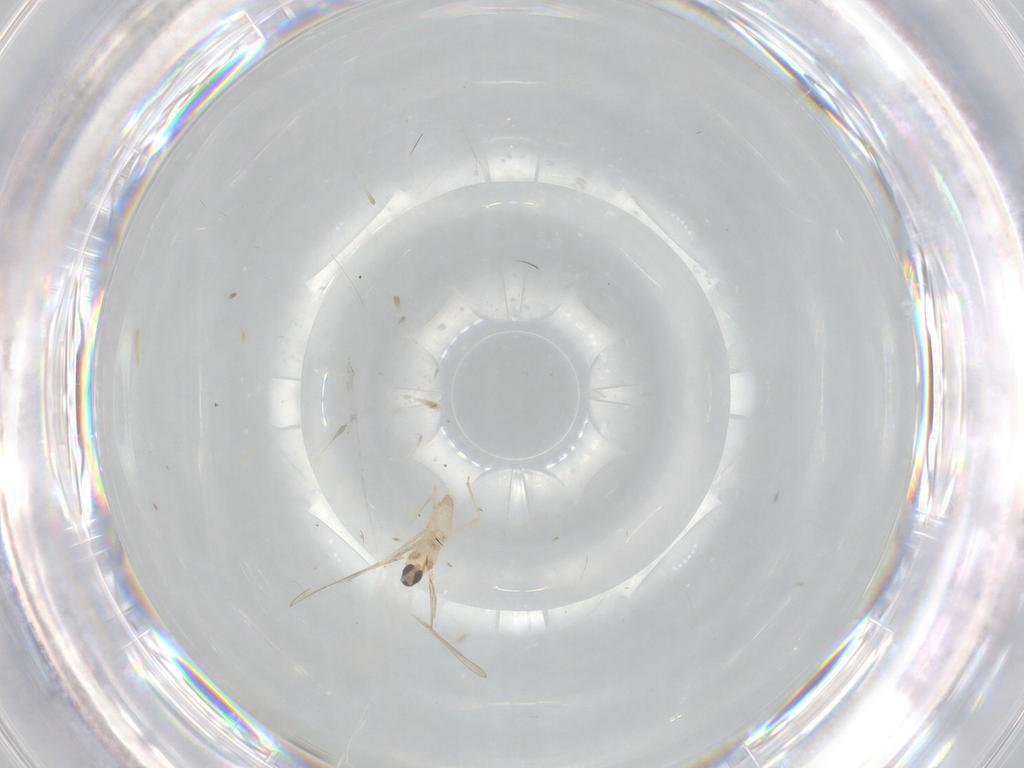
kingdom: Animalia
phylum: Arthropoda
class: Insecta
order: Diptera
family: Cecidomyiidae
